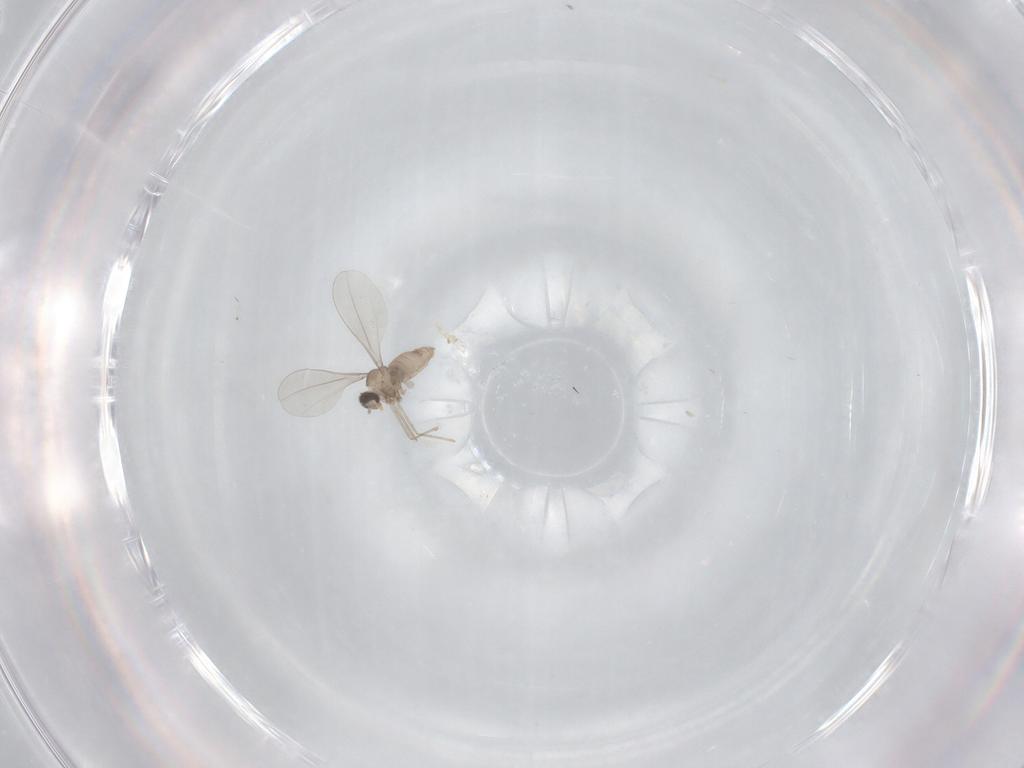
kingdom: Animalia
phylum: Arthropoda
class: Insecta
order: Diptera
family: Cecidomyiidae
